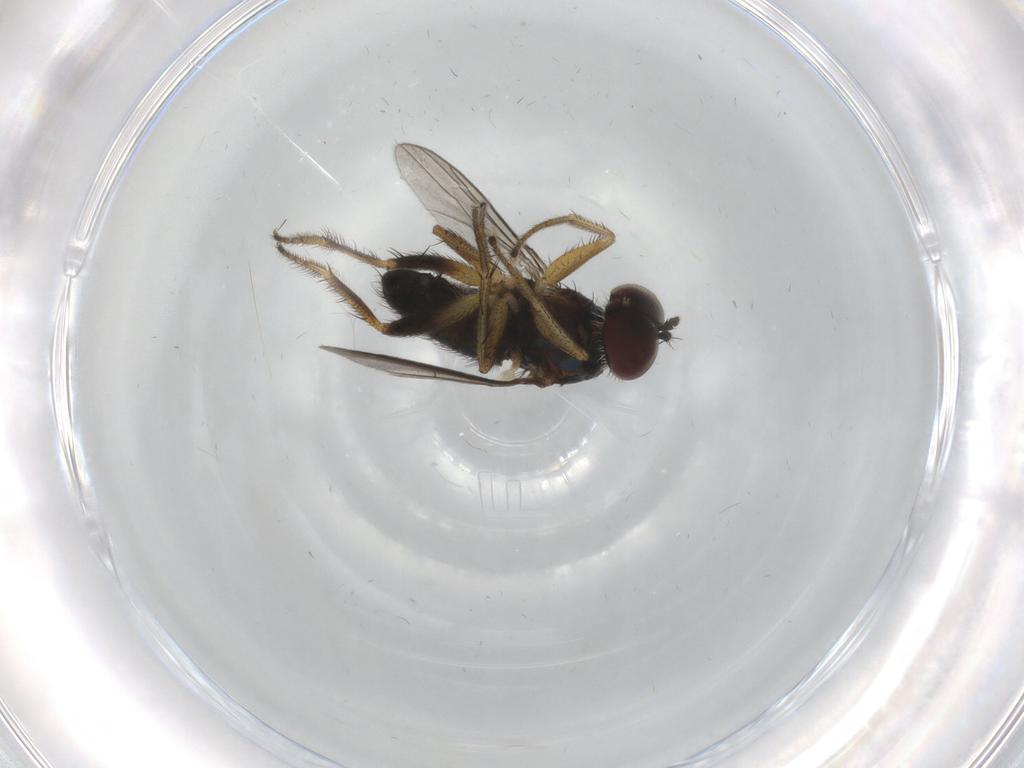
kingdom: Animalia
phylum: Arthropoda
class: Insecta
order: Diptera
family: Dolichopodidae
